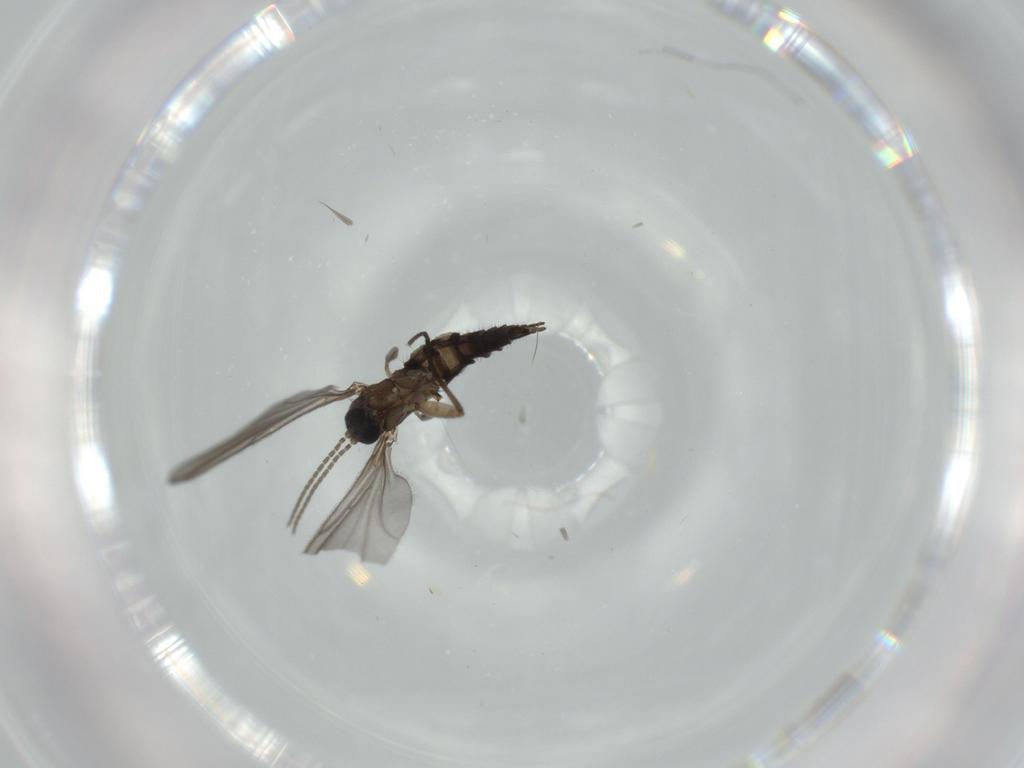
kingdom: Animalia
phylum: Arthropoda
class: Insecta
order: Diptera
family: Sciaridae
